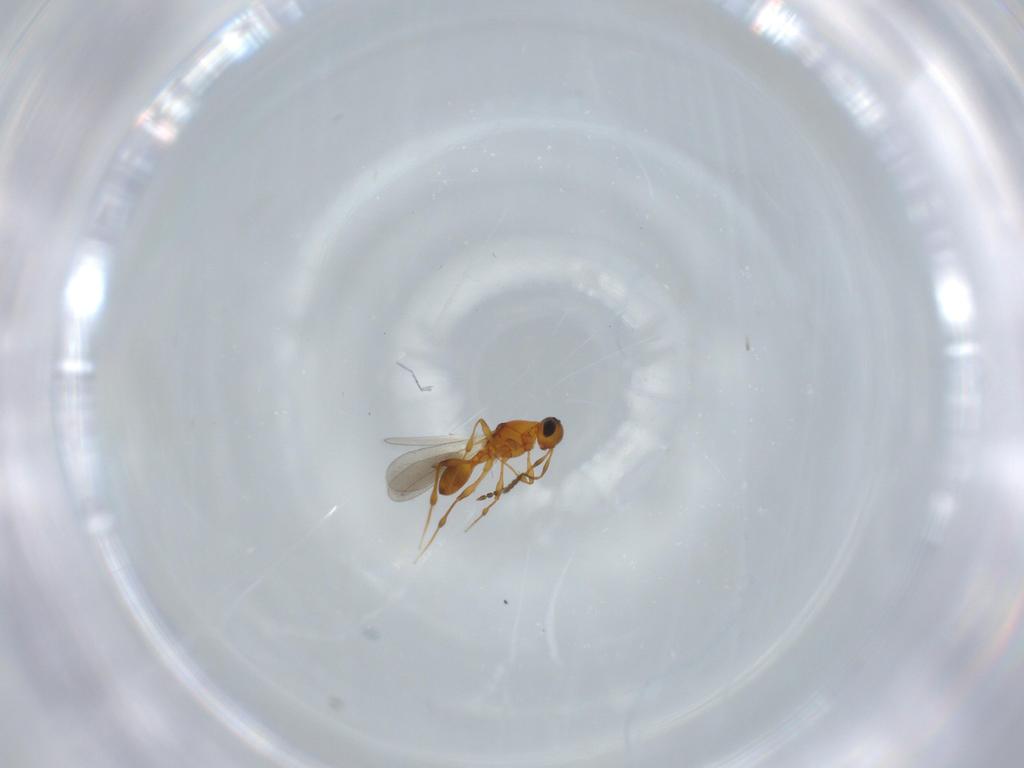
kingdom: Animalia
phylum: Arthropoda
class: Insecta
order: Hymenoptera
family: Platygastridae
